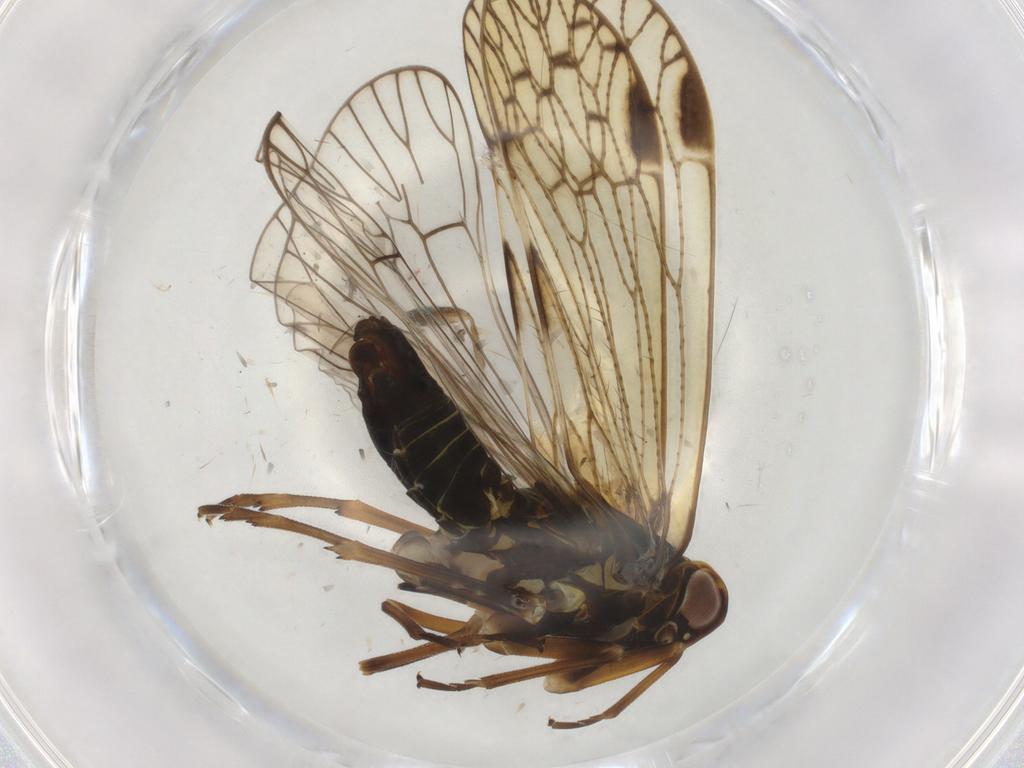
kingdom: Animalia
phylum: Arthropoda
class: Insecta
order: Hemiptera
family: Cixiidae
